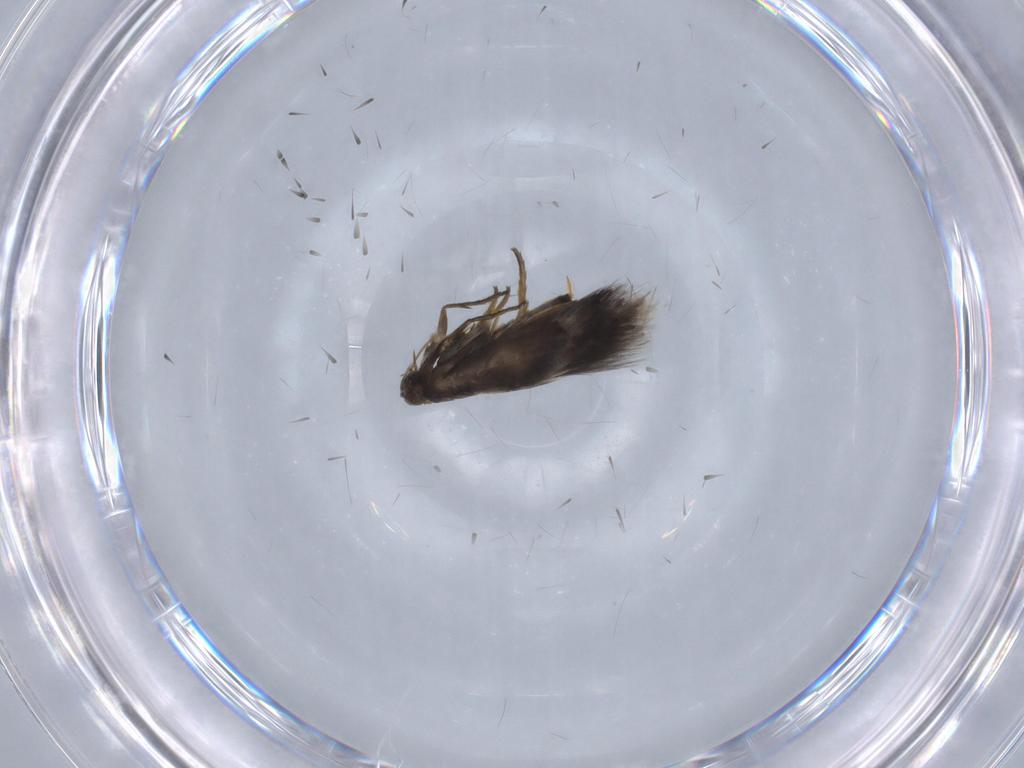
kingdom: Animalia
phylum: Arthropoda
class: Insecta
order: Lepidoptera
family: Heliozelidae
